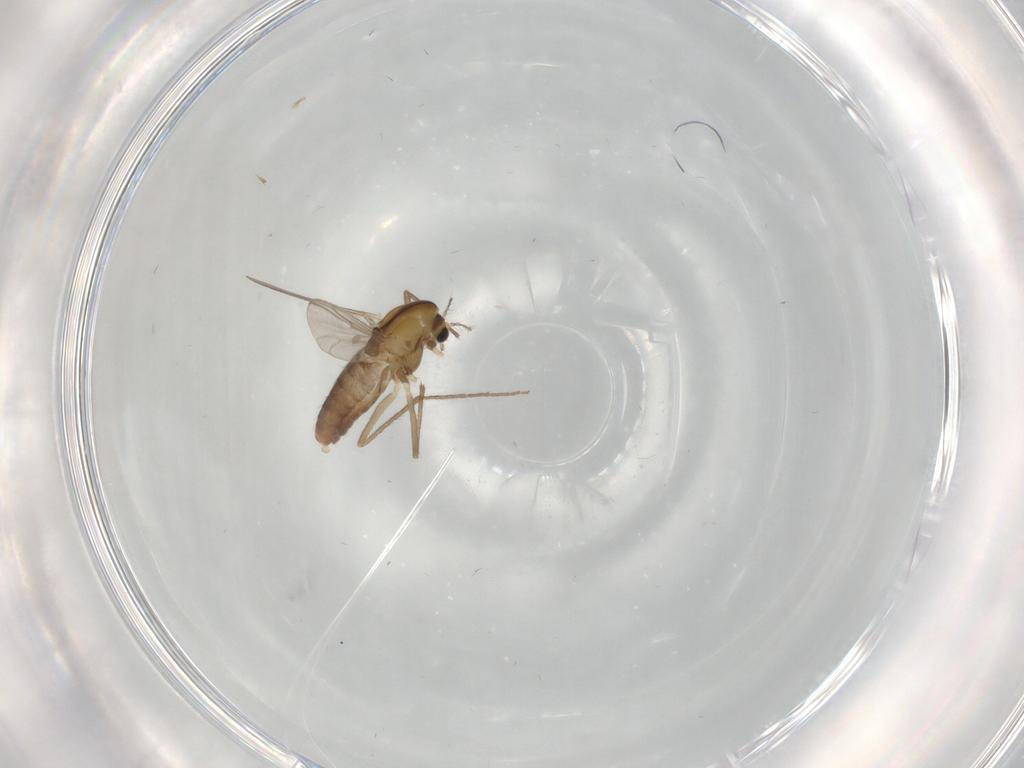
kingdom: Animalia
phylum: Arthropoda
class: Insecta
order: Diptera
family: Chironomidae
